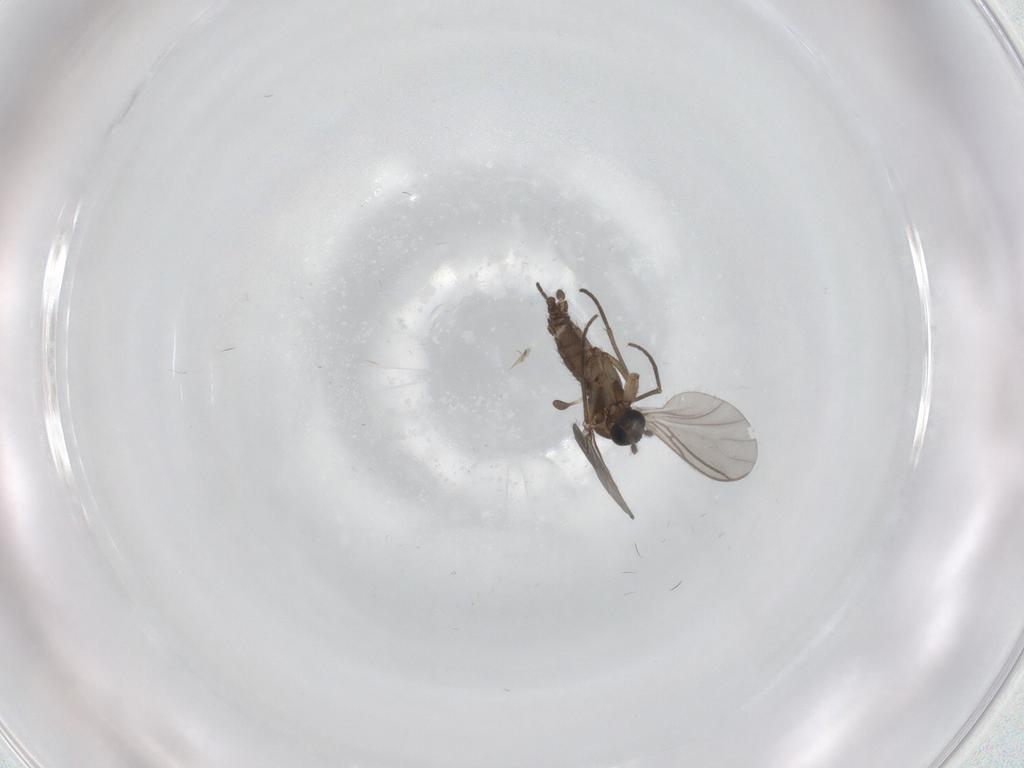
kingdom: Animalia
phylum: Arthropoda
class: Insecta
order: Diptera
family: Sciaridae
